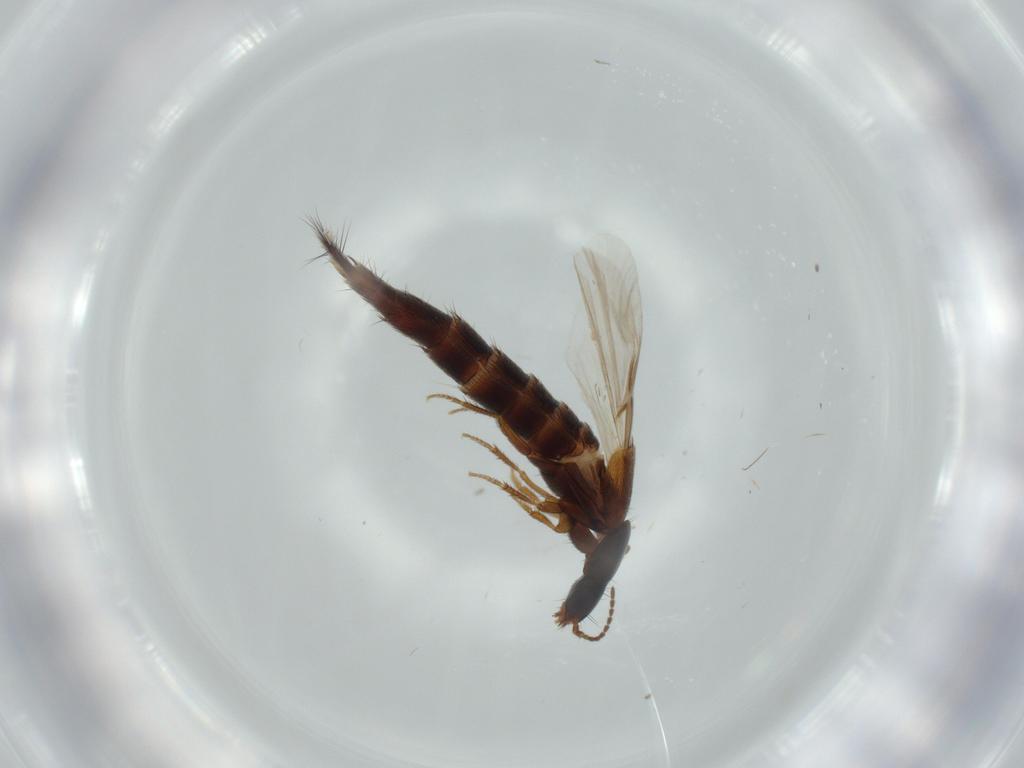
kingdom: Animalia
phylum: Arthropoda
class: Insecta
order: Coleoptera
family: Staphylinidae
